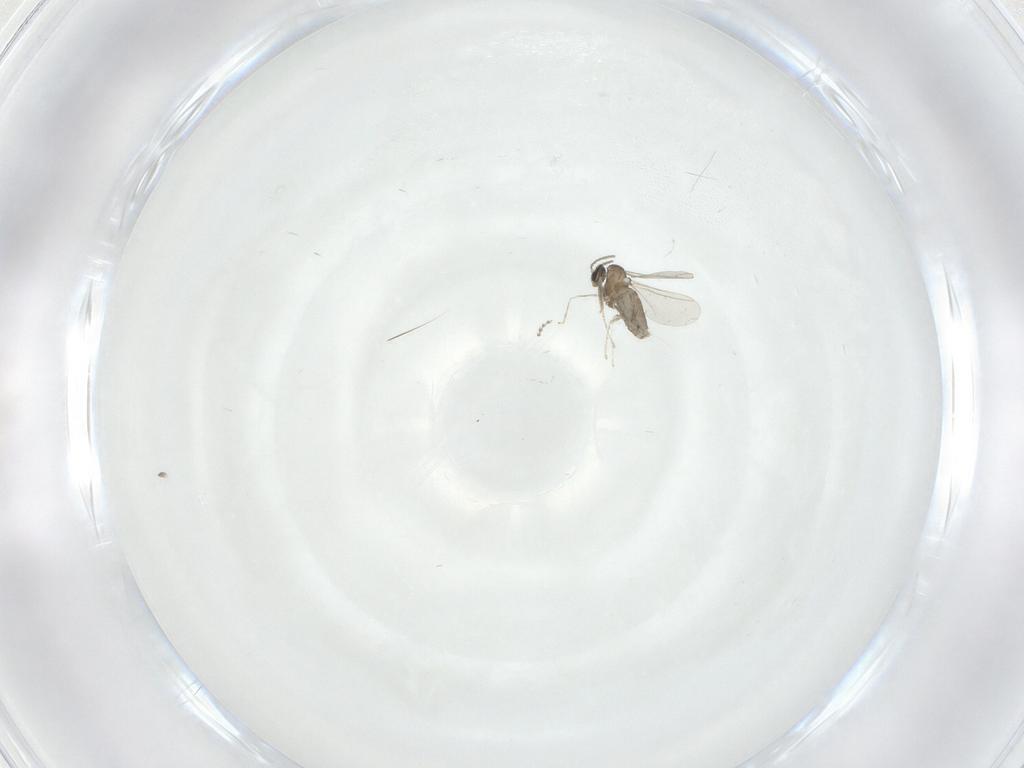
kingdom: Animalia
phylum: Arthropoda
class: Insecta
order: Diptera
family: Cecidomyiidae
